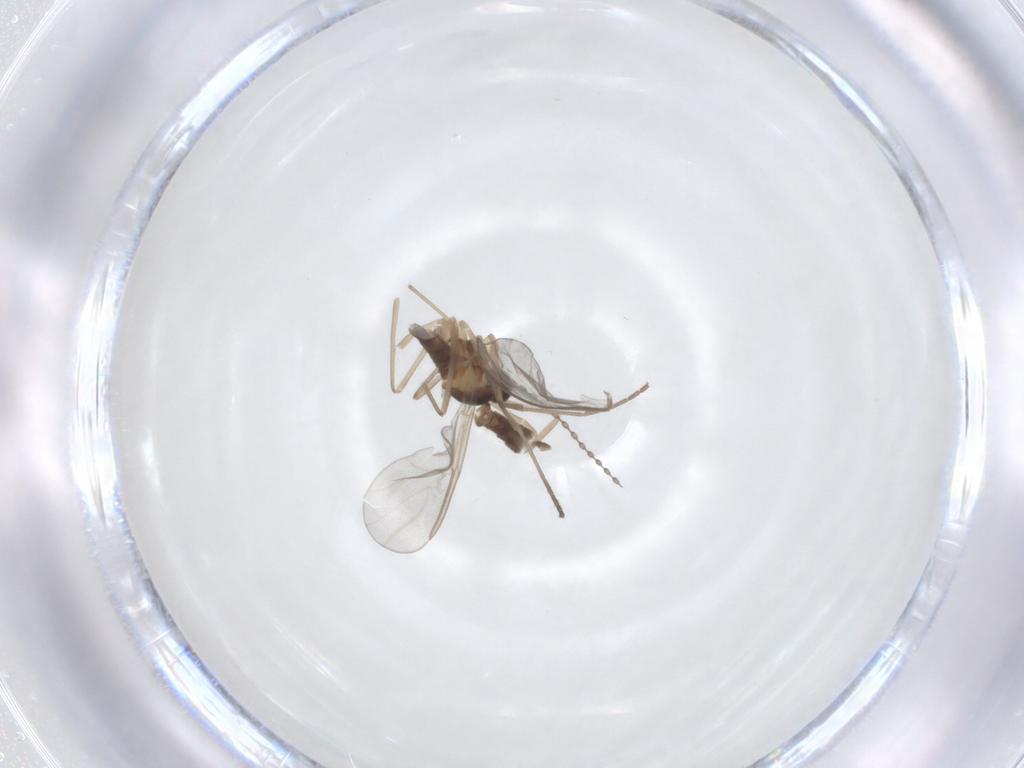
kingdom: Animalia
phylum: Arthropoda
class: Insecta
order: Diptera
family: Cecidomyiidae
